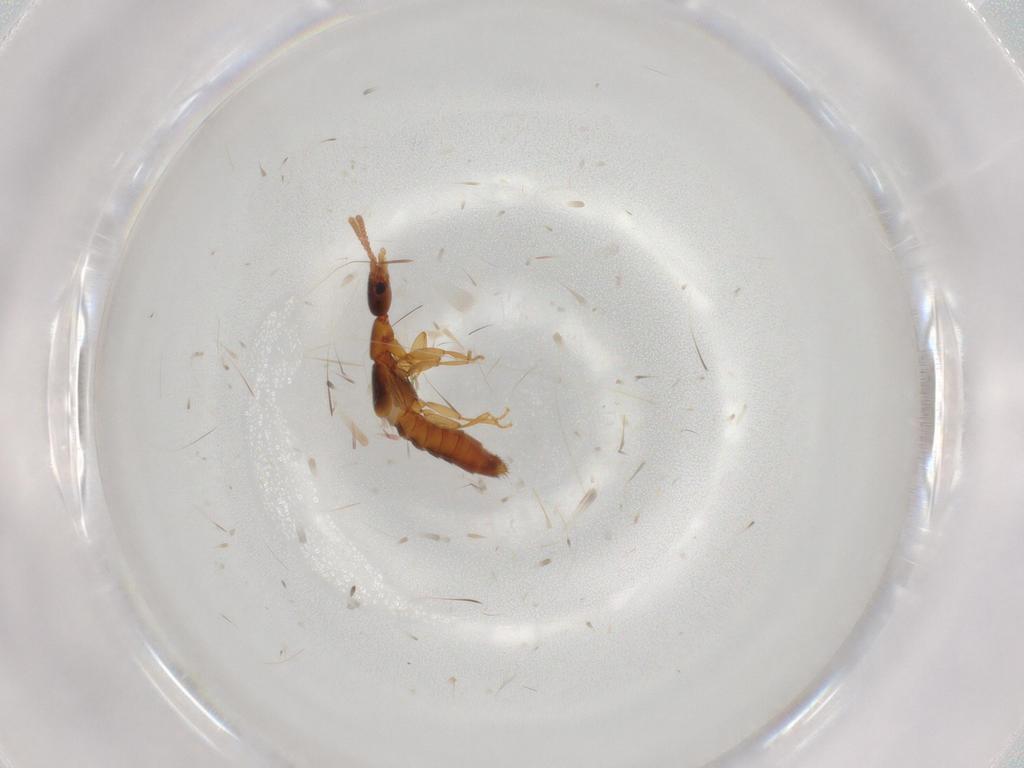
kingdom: Animalia
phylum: Arthropoda
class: Insecta
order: Coleoptera
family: Staphylinidae
